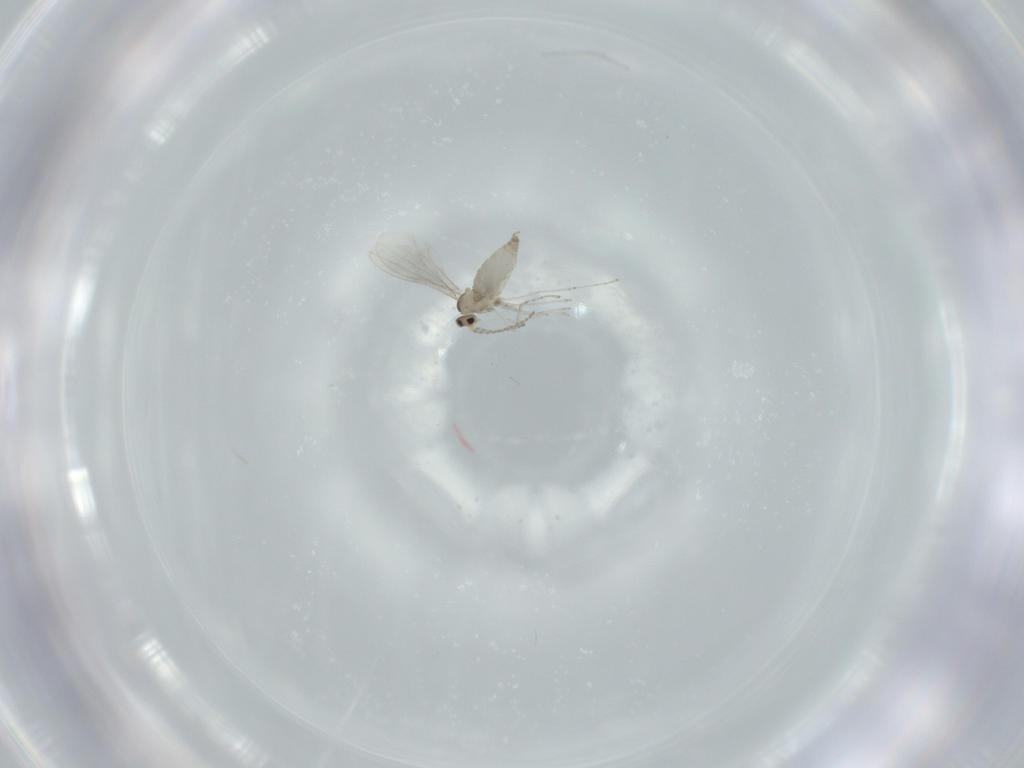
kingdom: Animalia
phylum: Arthropoda
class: Insecta
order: Diptera
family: Cecidomyiidae
